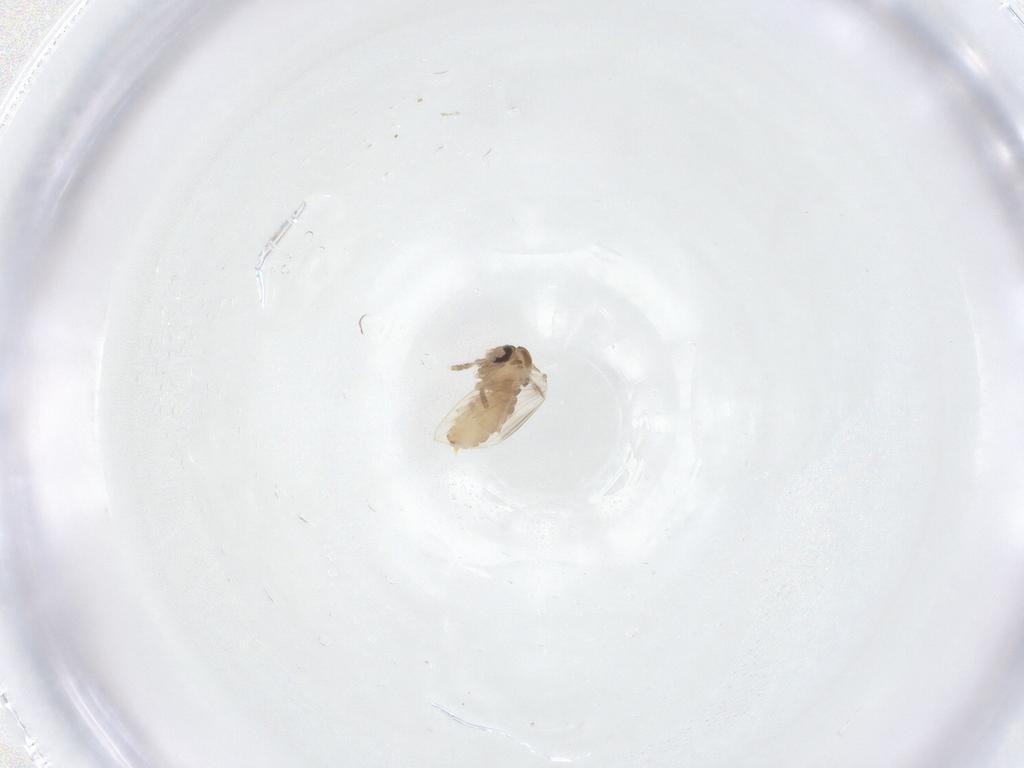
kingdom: Animalia
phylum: Arthropoda
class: Insecta
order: Diptera
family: Psychodidae
